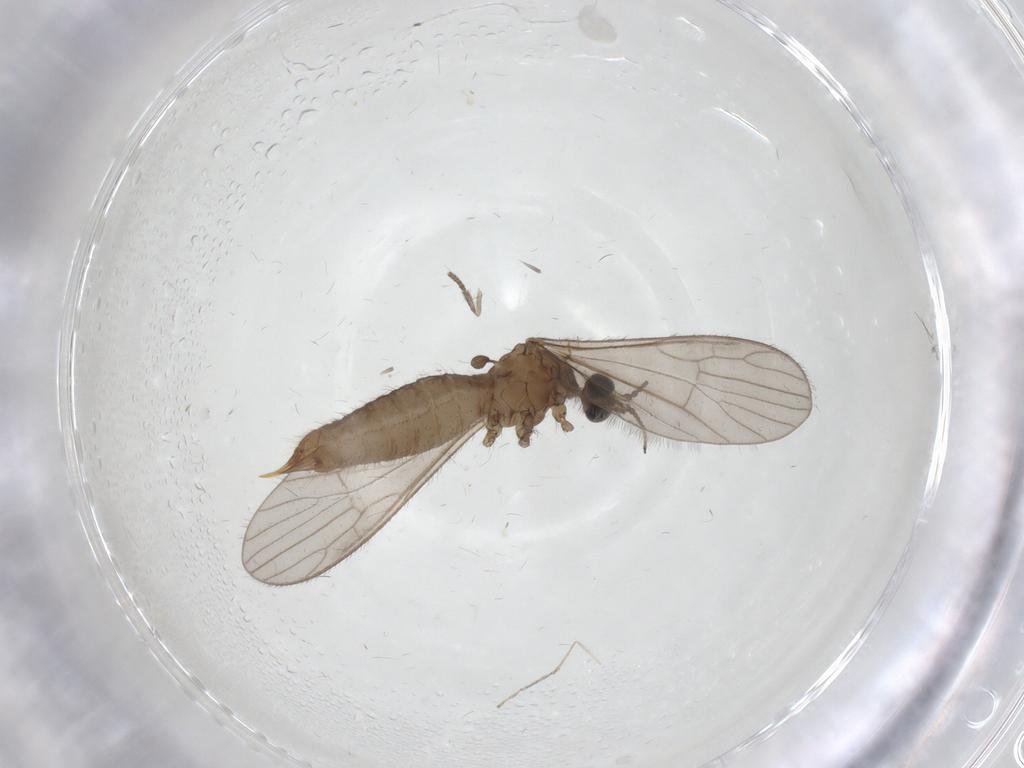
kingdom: Animalia
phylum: Arthropoda
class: Insecta
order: Diptera
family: Limoniidae
